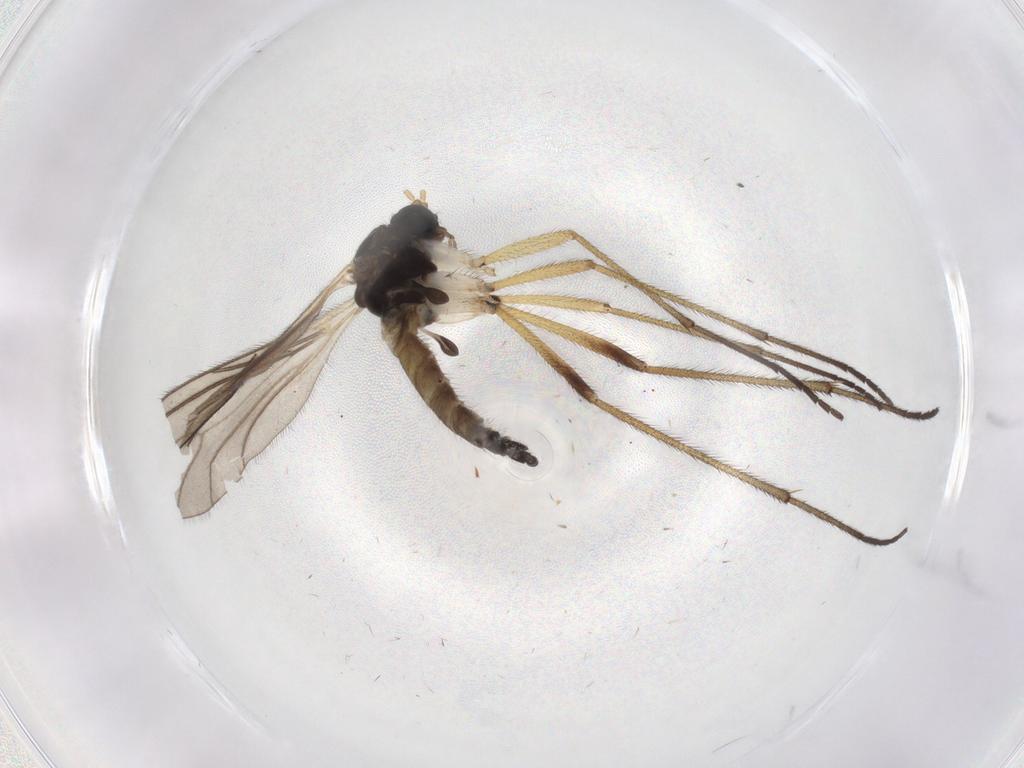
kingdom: Animalia
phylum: Arthropoda
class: Insecta
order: Diptera
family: Sciaridae
